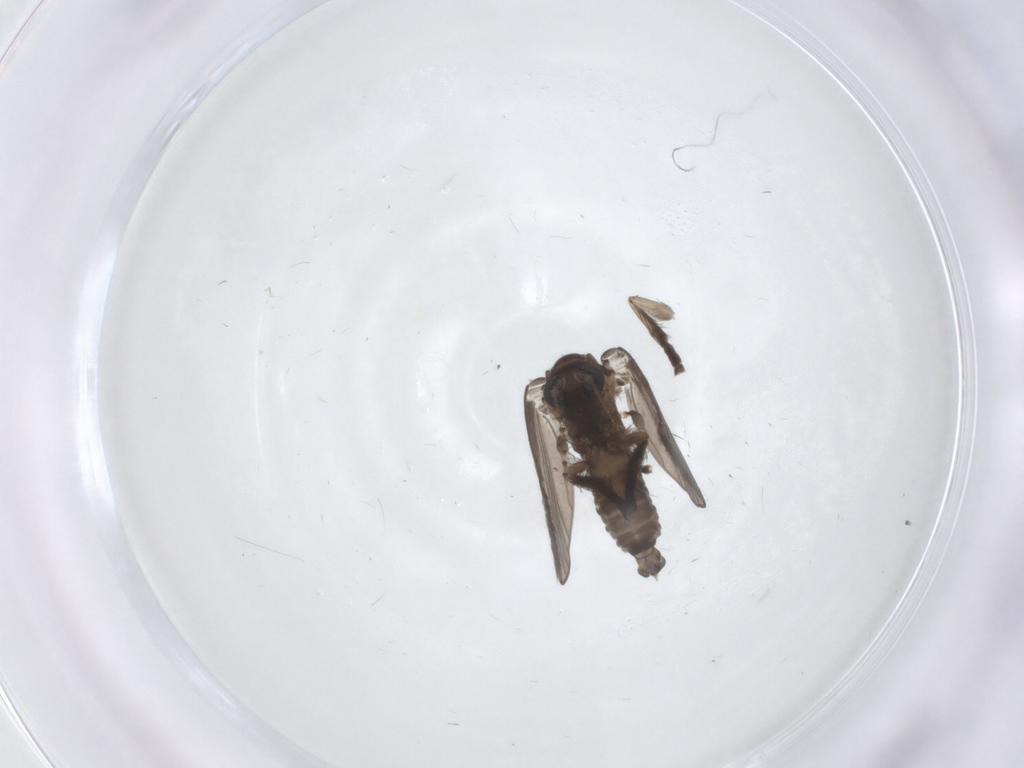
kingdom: Animalia
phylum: Arthropoda
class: Insecta
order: Diptera
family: Psychodidae
